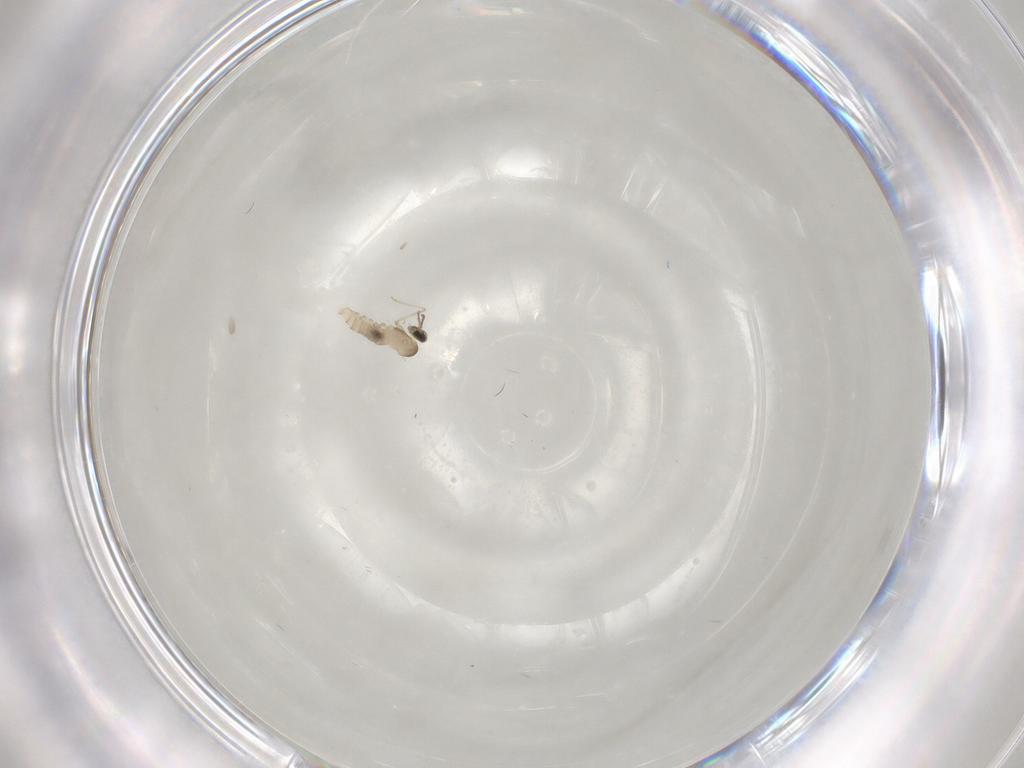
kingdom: Animalia
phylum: Arthropoda
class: Insecta
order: Diptera
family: Cecidomyiidae
